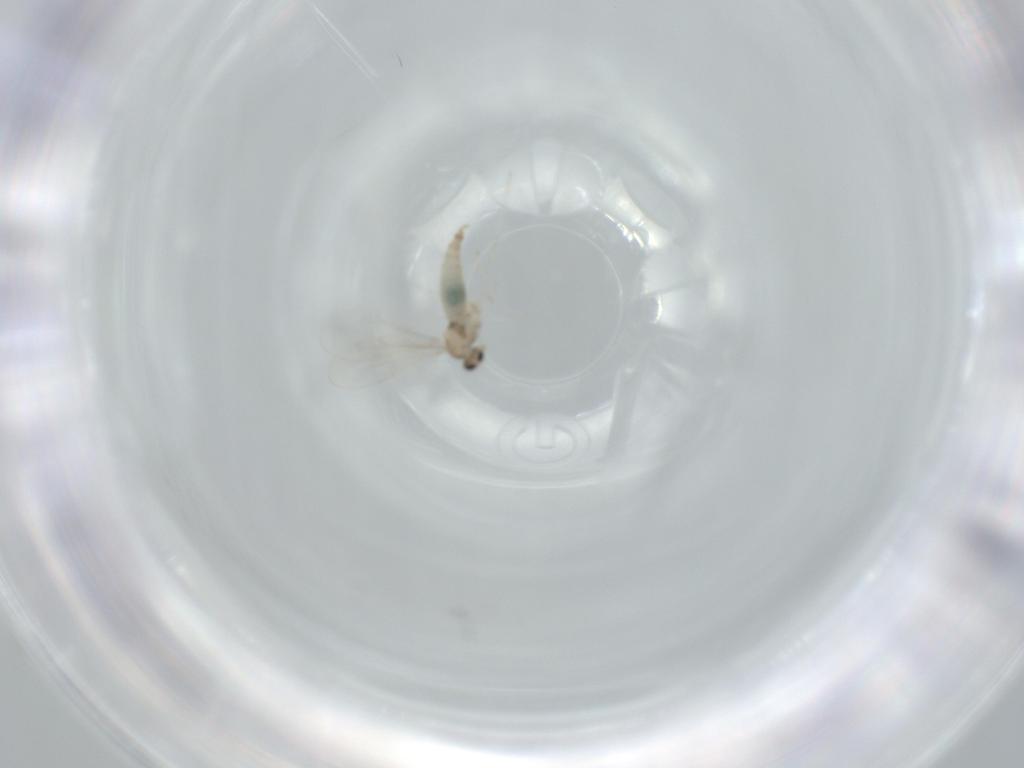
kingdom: Animalia
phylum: Arthropoda
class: Insecta
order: Diptera
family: Cecidomyiidae
